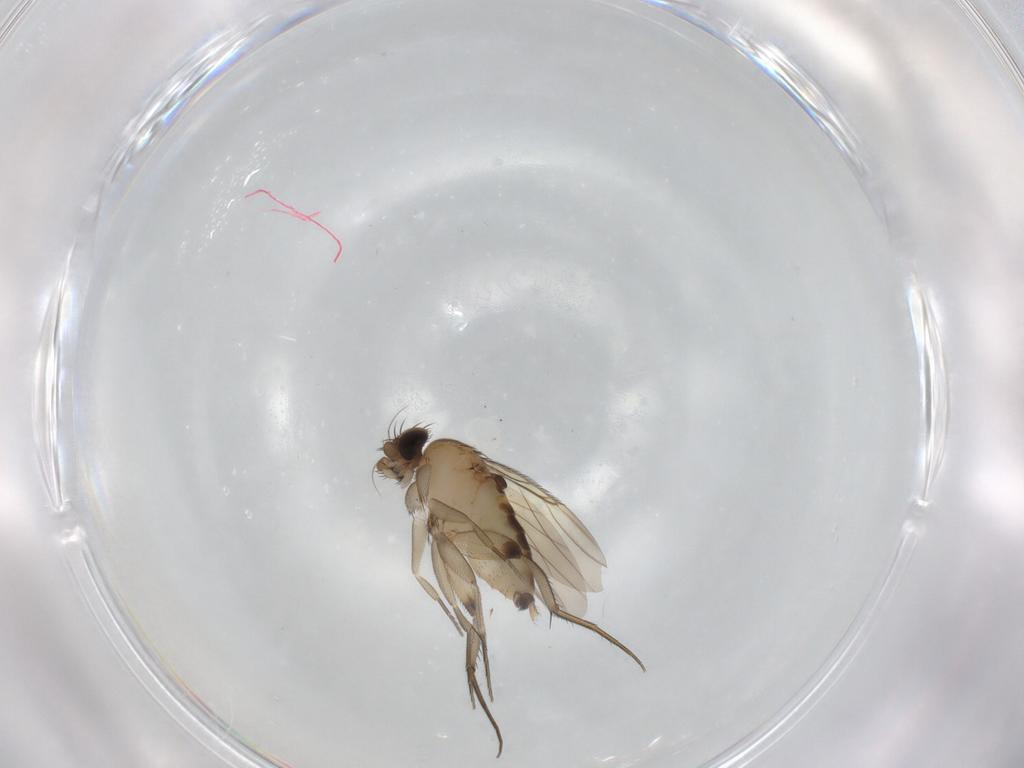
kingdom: Animalia
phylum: Arthropoda
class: Insecta
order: Diptera
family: Phoridae
